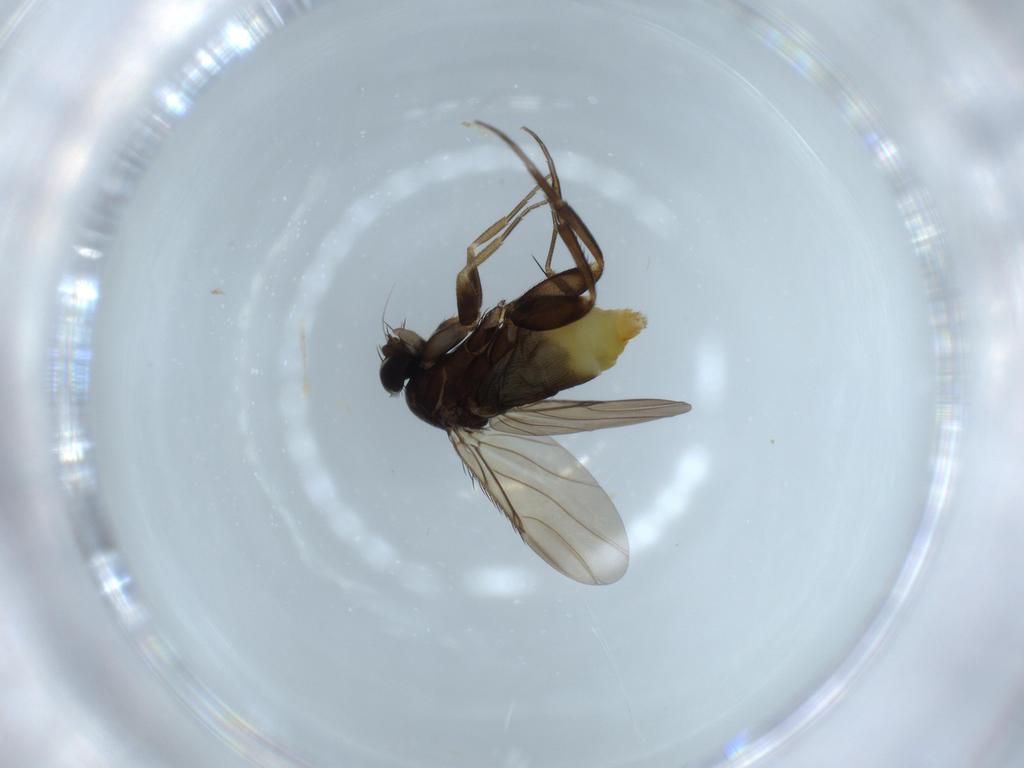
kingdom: Animalia
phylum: Arthropoda
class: Insecta
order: Diptera
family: Phoridae
